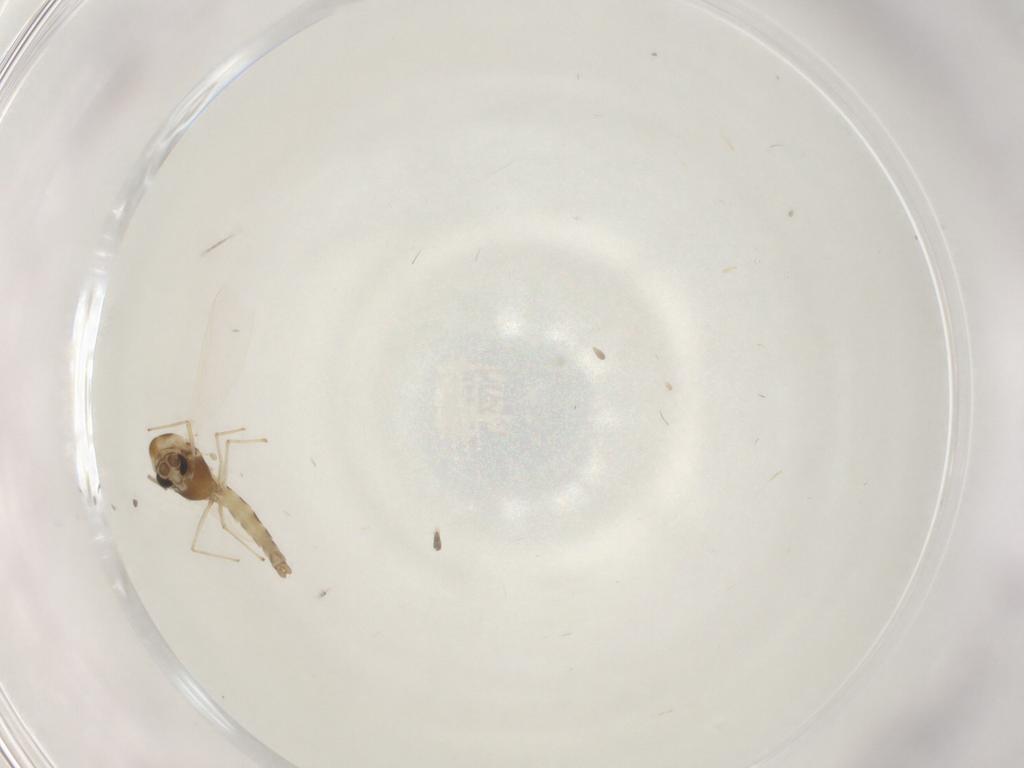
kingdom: Animalia
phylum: Arthropoda
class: Insecta
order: Diptera
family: Chironomidae
